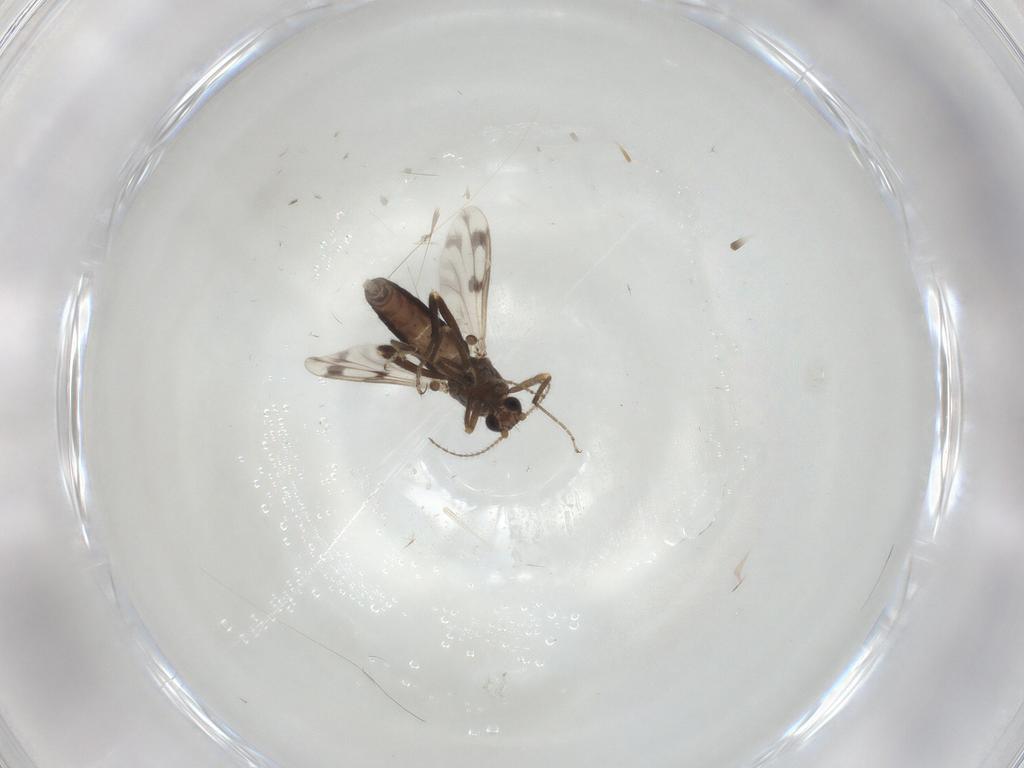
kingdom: Animalia
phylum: Arthropoda
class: Insecta
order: Diptera
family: Ceratopogonidae
